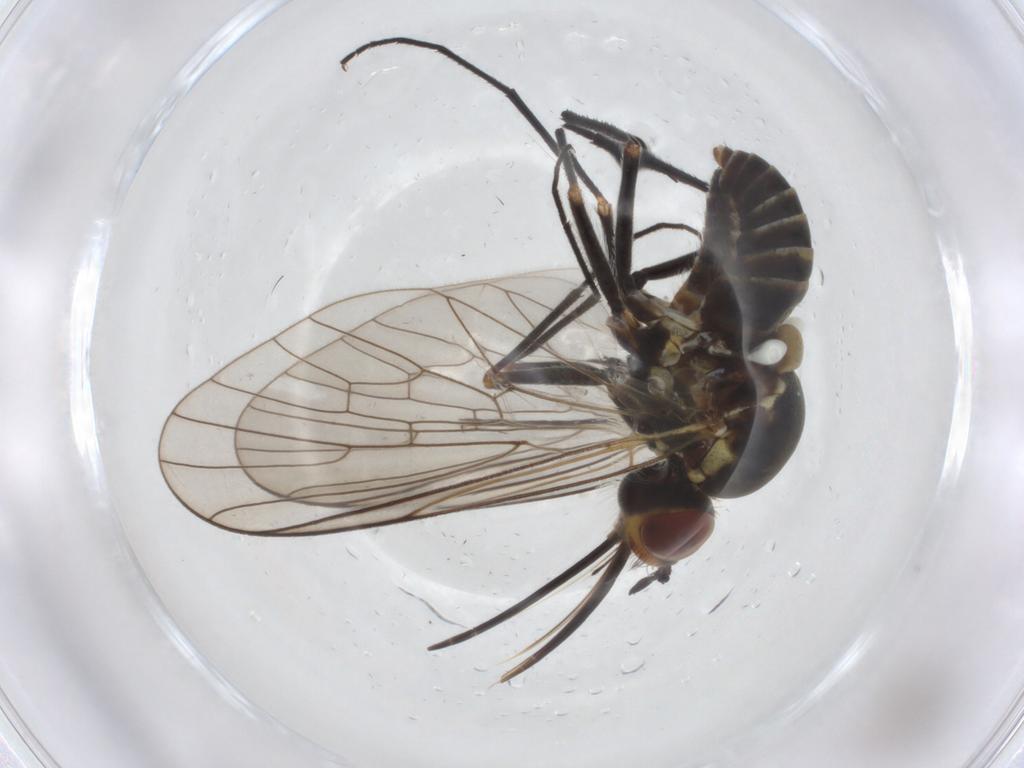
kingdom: Animalia
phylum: Arthropoda
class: Insecta
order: Diptera
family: Bombyliidae
